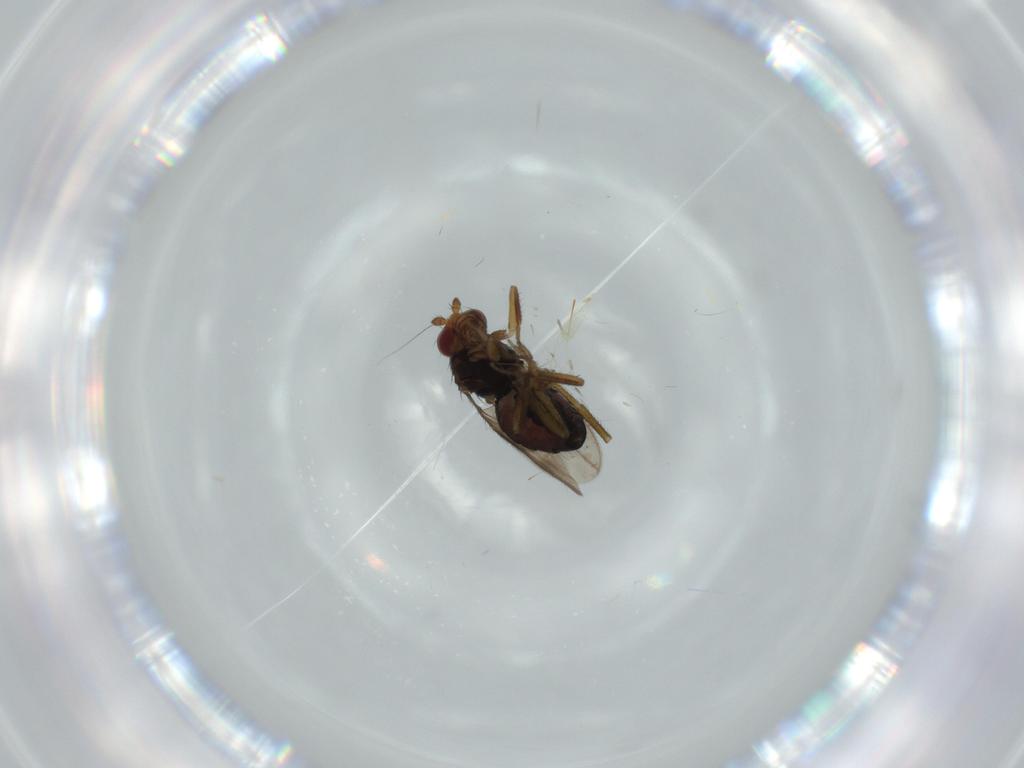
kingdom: Animalia
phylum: Arthropoda
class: Insecta
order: Diptera
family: Sphaeroceridae
